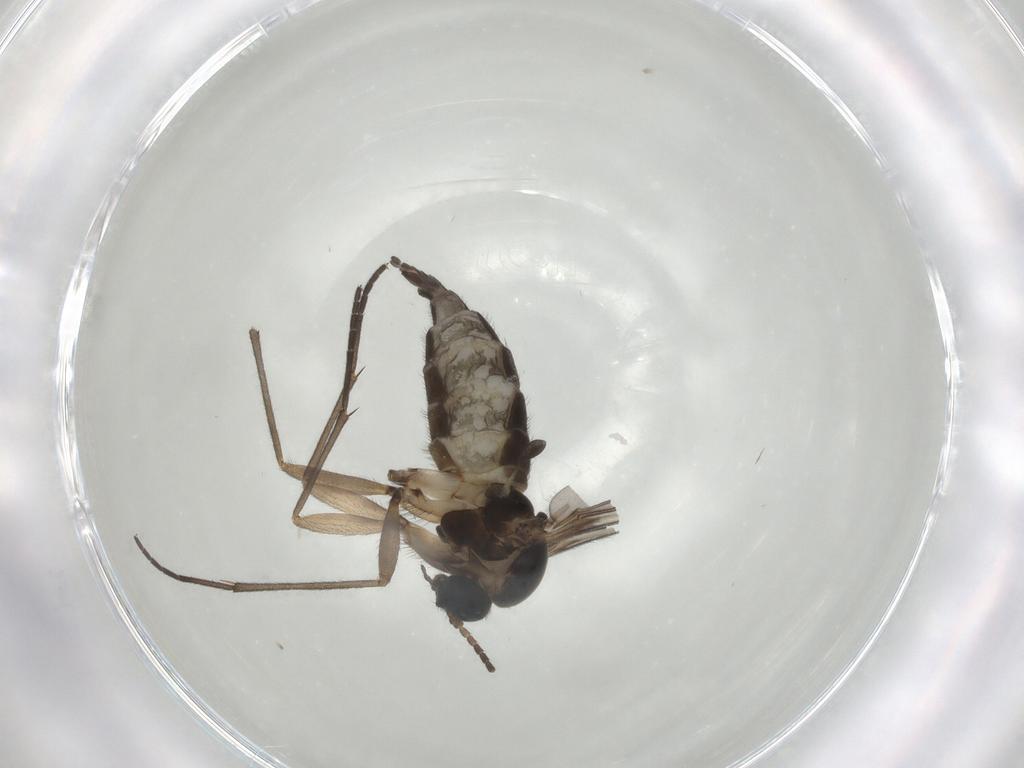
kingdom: Animalia
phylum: Arthropoda
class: Insecta
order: Diptera
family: Sciaridae
